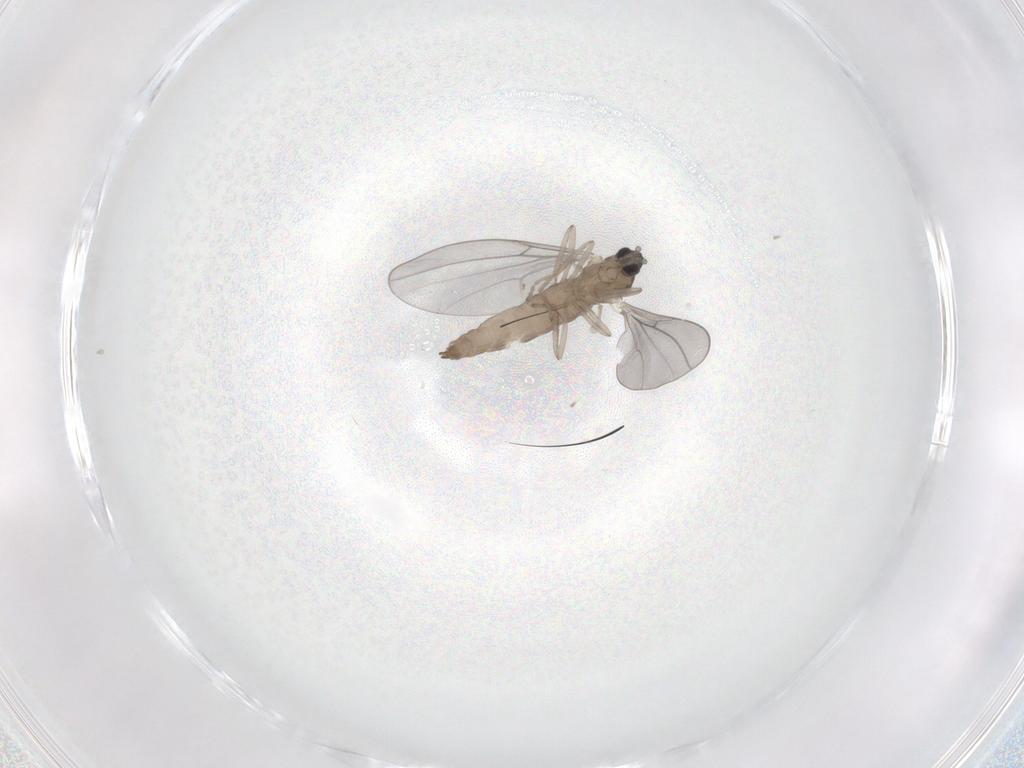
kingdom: Animalia
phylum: Arthropoda
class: Insecta
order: Diptera
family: Cecidomyiidae
